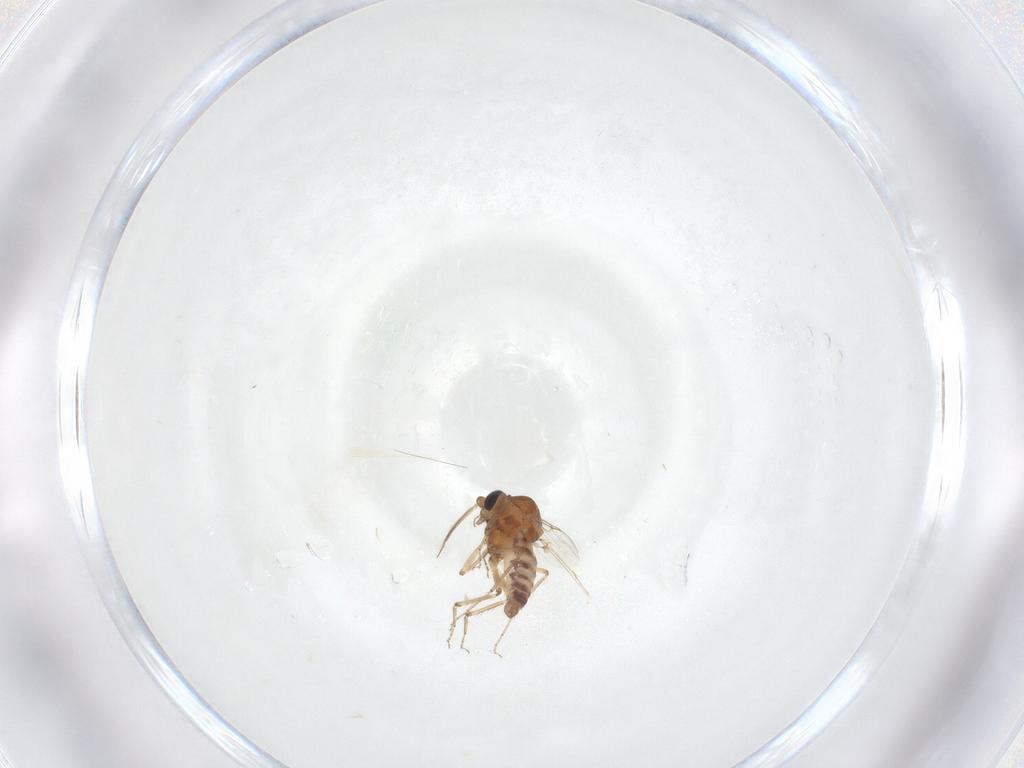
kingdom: Animalia
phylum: Arthropoda
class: Insecta
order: Diptera
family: Ceratopogonidae
